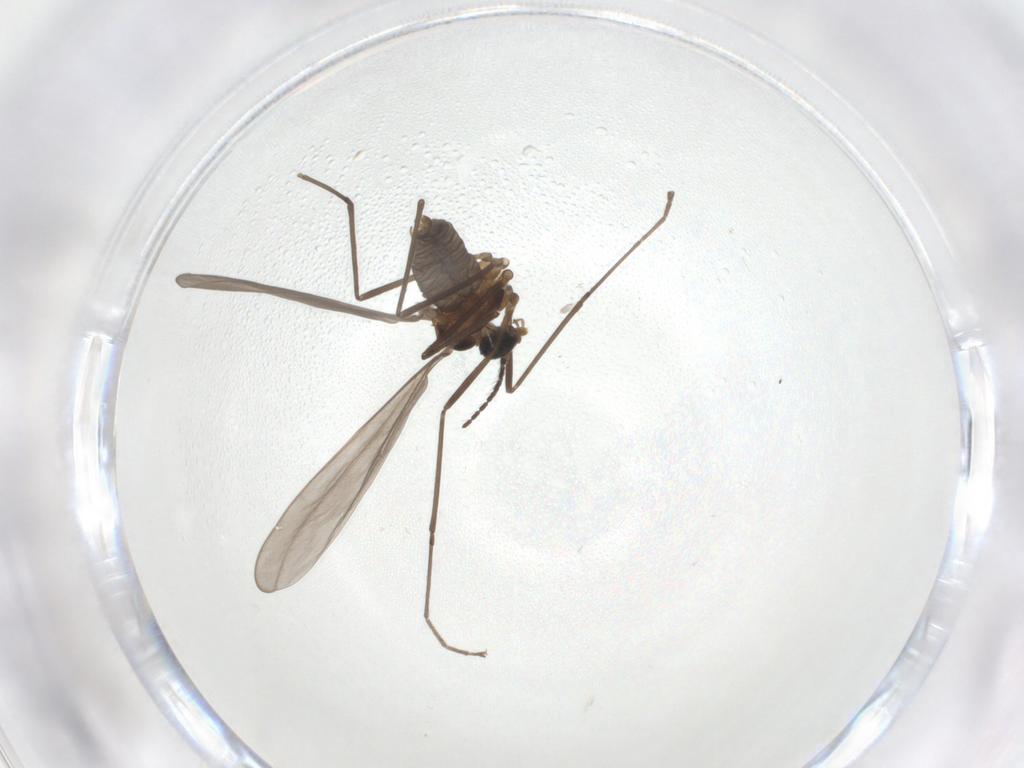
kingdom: Animalia
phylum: Arthropoda
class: Insecta
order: Diptera
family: Cecidomyiidae
